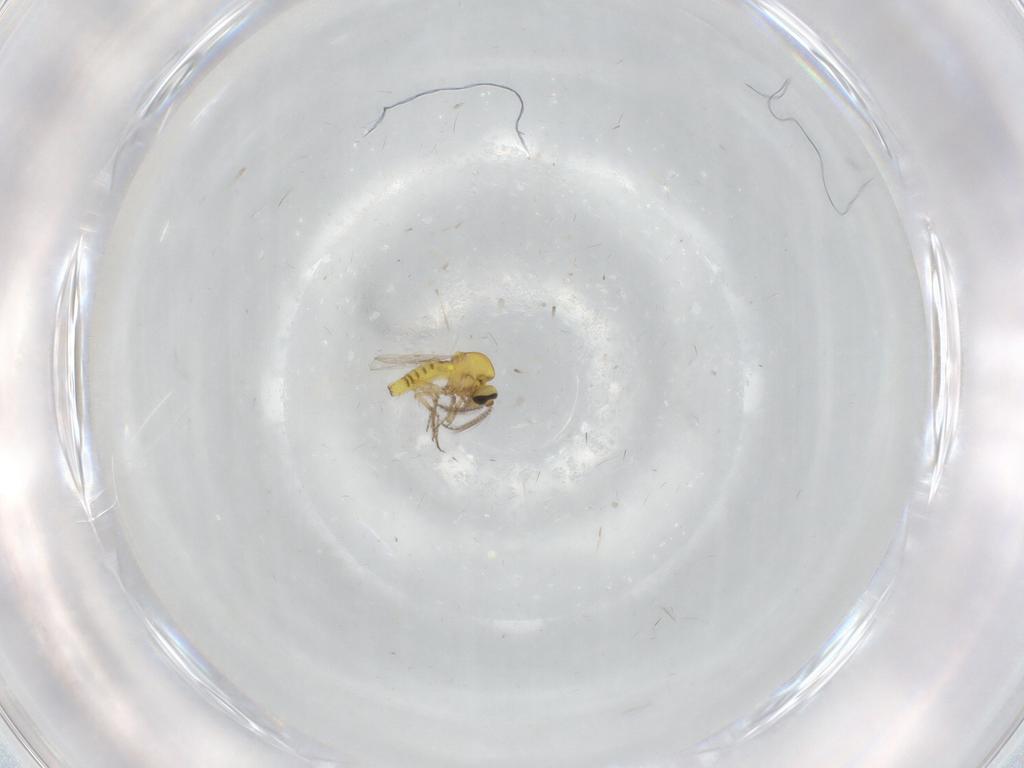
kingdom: Animalia
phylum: Arthropoda
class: Insecta
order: Diptera
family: Ceratopogonidae
